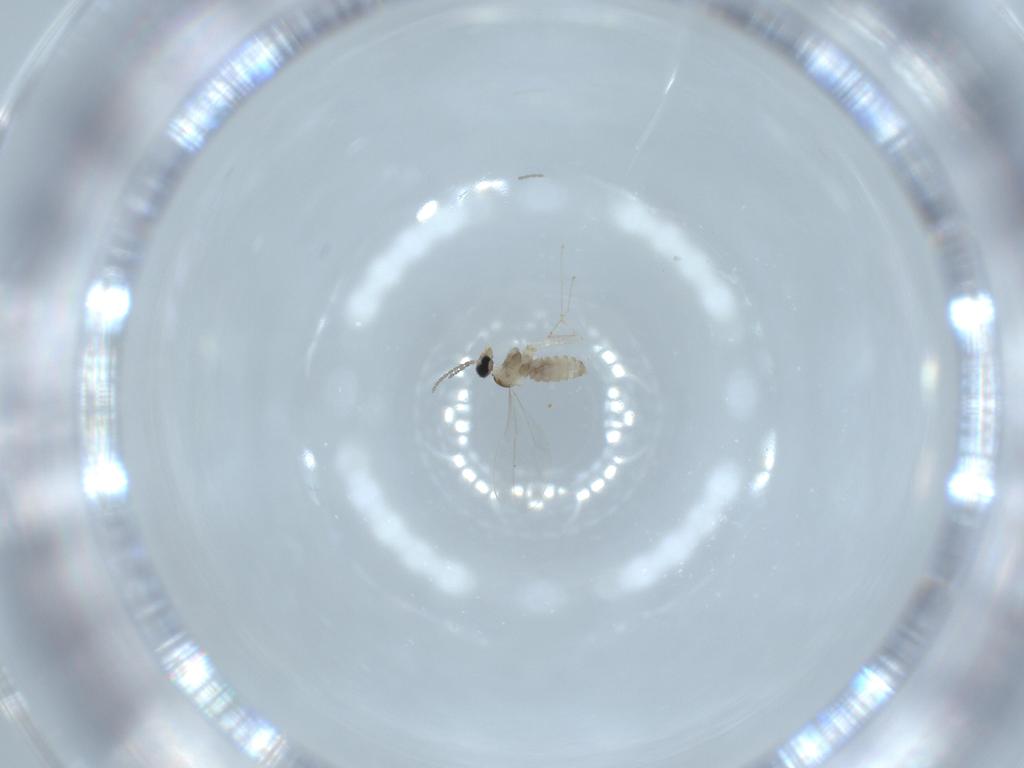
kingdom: Animalia
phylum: Arthropoda
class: Insecta
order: Diptera
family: Cecidomyiidae
